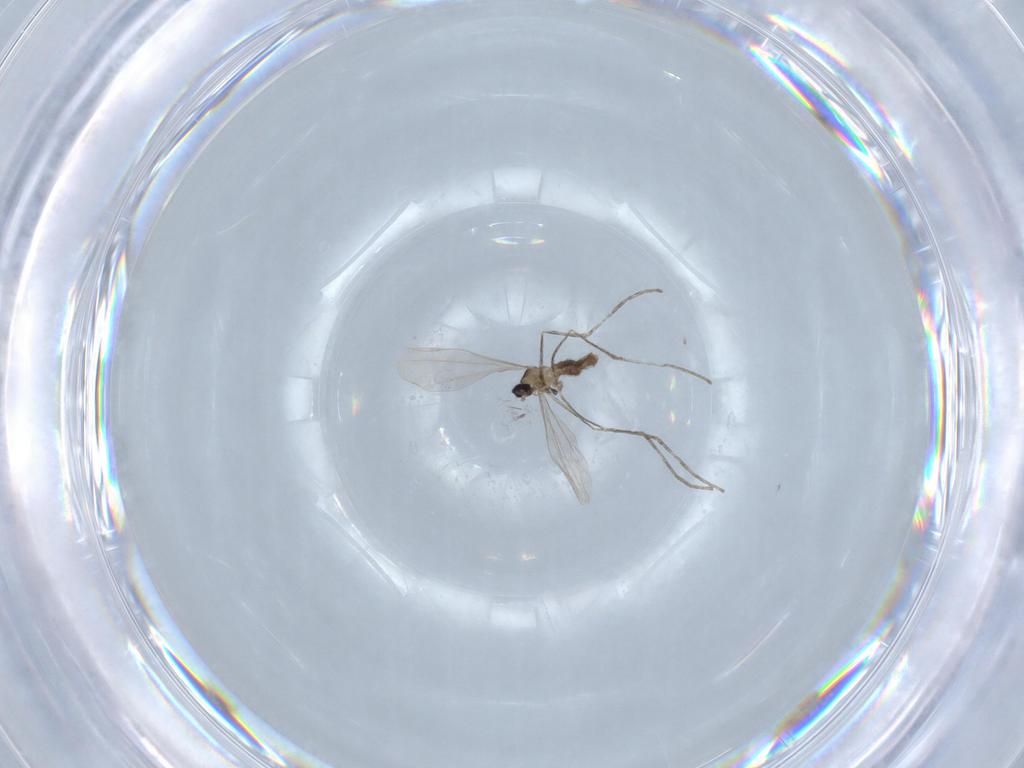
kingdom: Animalia
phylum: Arthropoda
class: Insecta
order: Diptera
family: Cecidomyiidae
